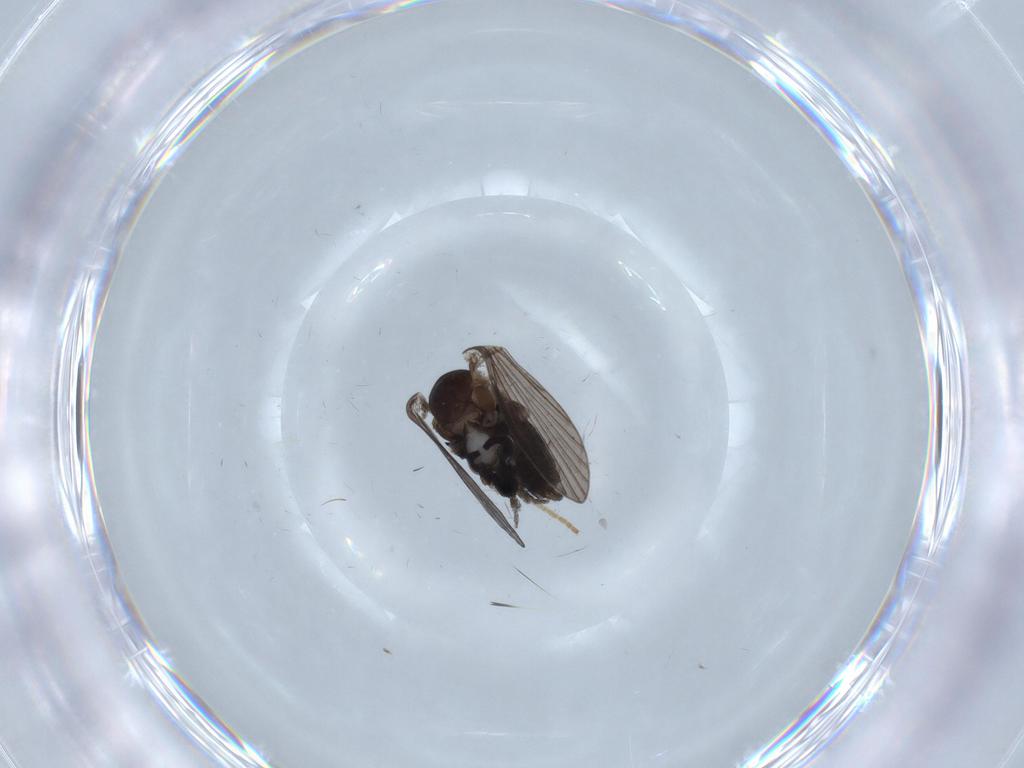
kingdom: Animalia
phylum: Arthropoda
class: Insecta
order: Diptera
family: Psychodidae
